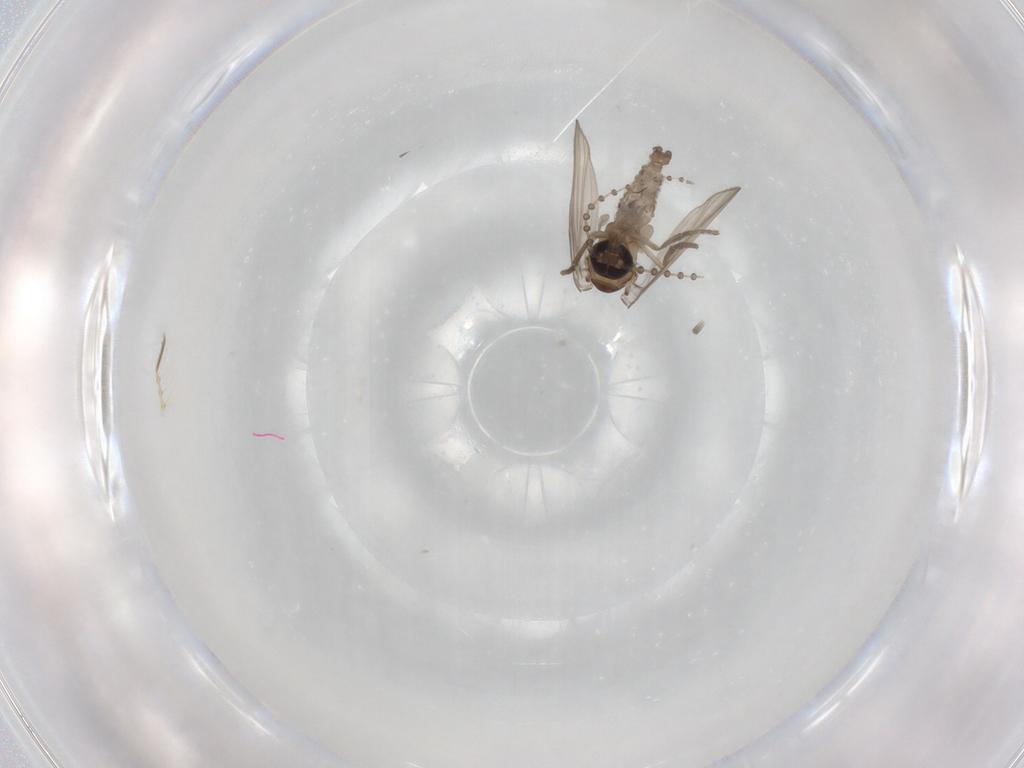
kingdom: Animalia
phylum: Arthropoda
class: Insecta
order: Diptera
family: Psychodidae
